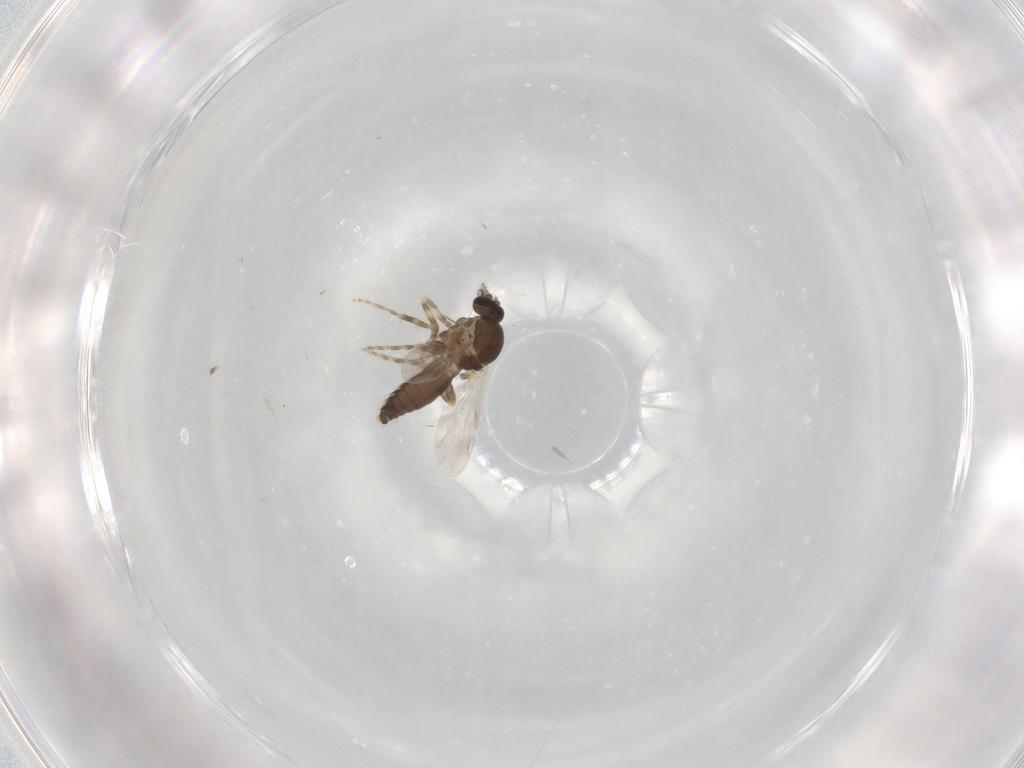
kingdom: Animalia
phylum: Arthropoda
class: Insecta
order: Diptera
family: Ceratopogonidae
